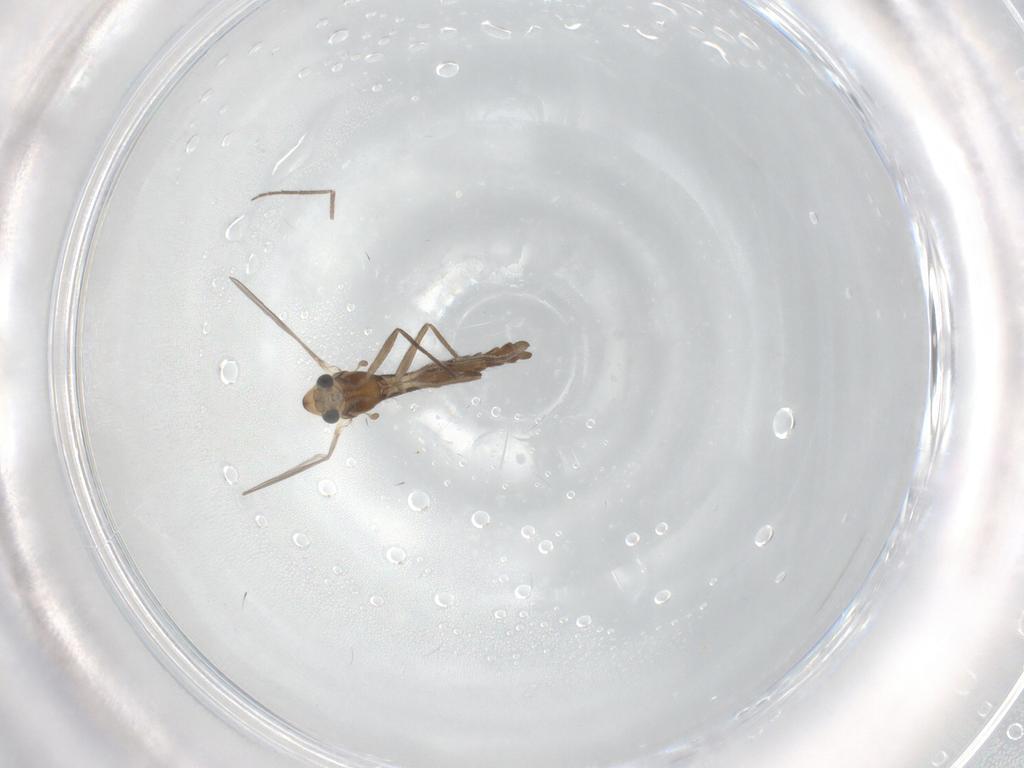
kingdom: Animalia
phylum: Arthropoda
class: Insecta
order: Diptera
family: Chironomidae
